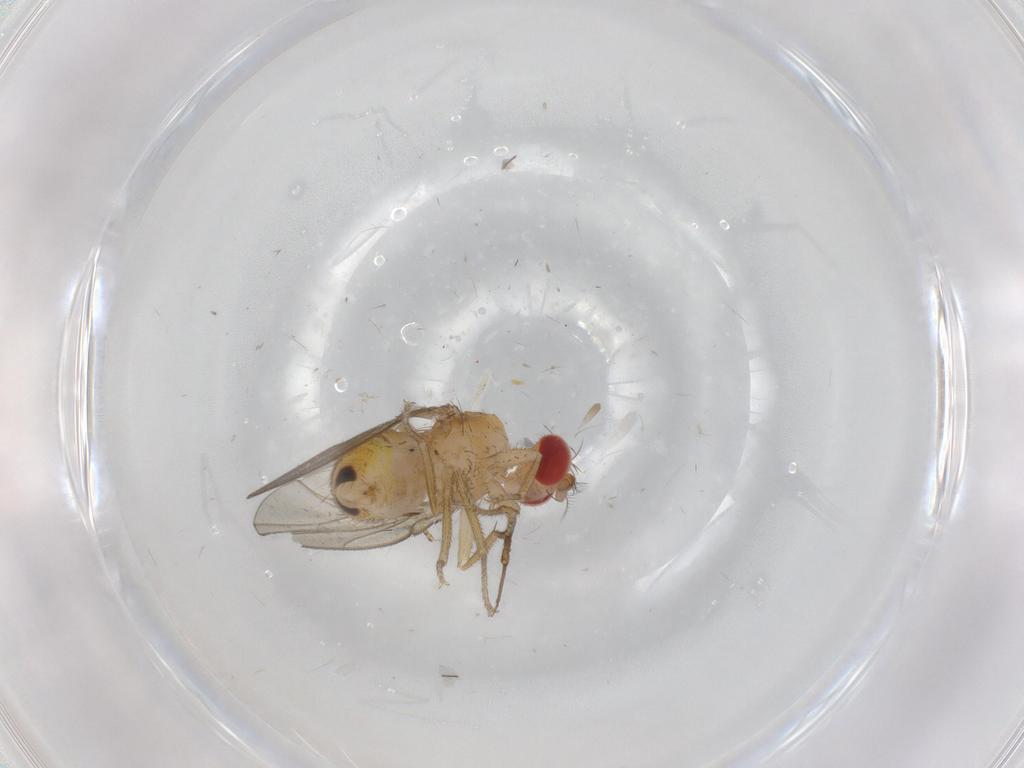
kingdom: Animalia
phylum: Arthropoda
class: Insecta
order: Diptera
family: Drosophilidae
